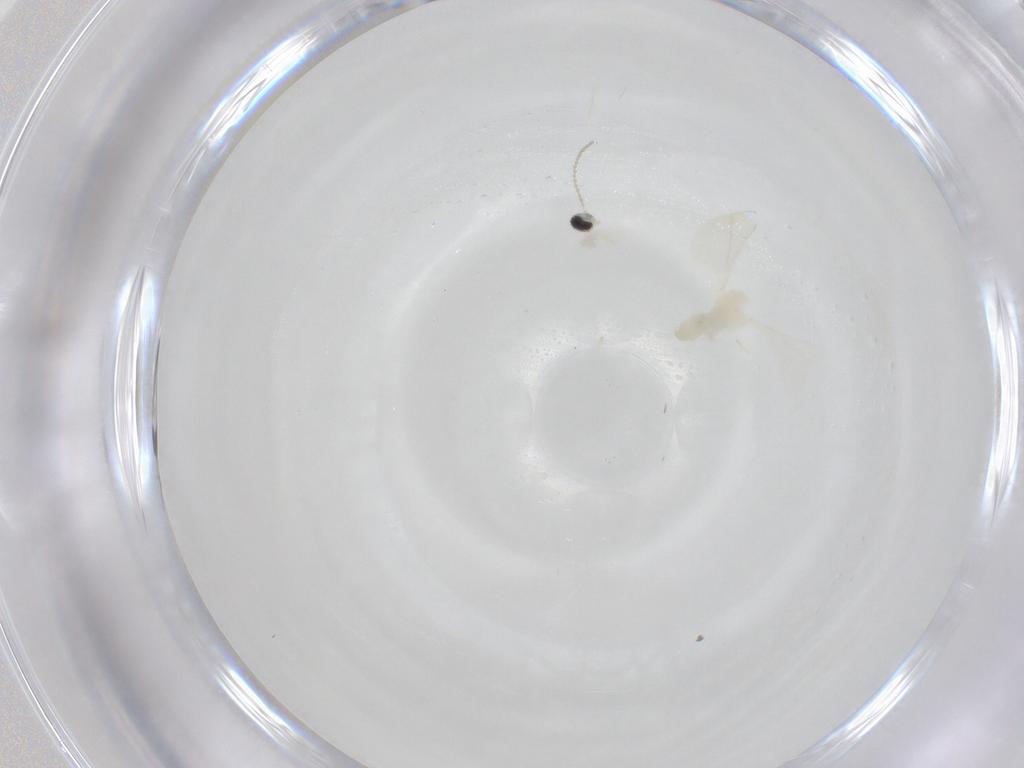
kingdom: Animalia
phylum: Arthropoda
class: Insecta
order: Diptera
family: Cecidomyiidae
